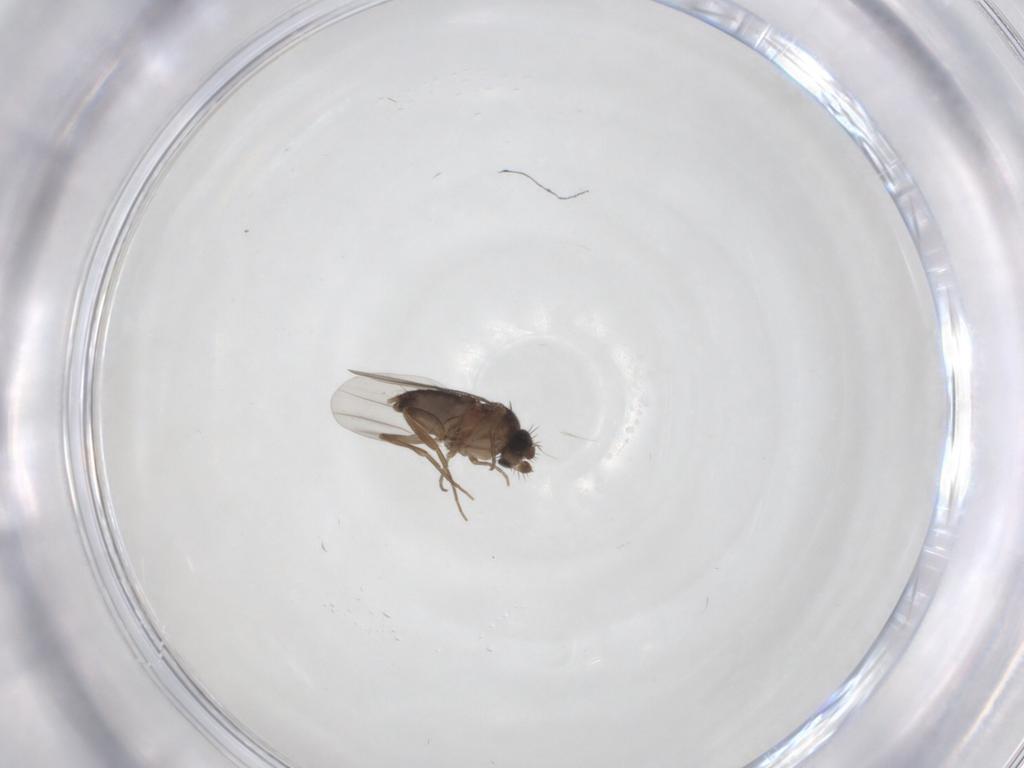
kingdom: Animalia
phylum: Arthropoda
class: Insecta
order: Diptera
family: Phoridae
